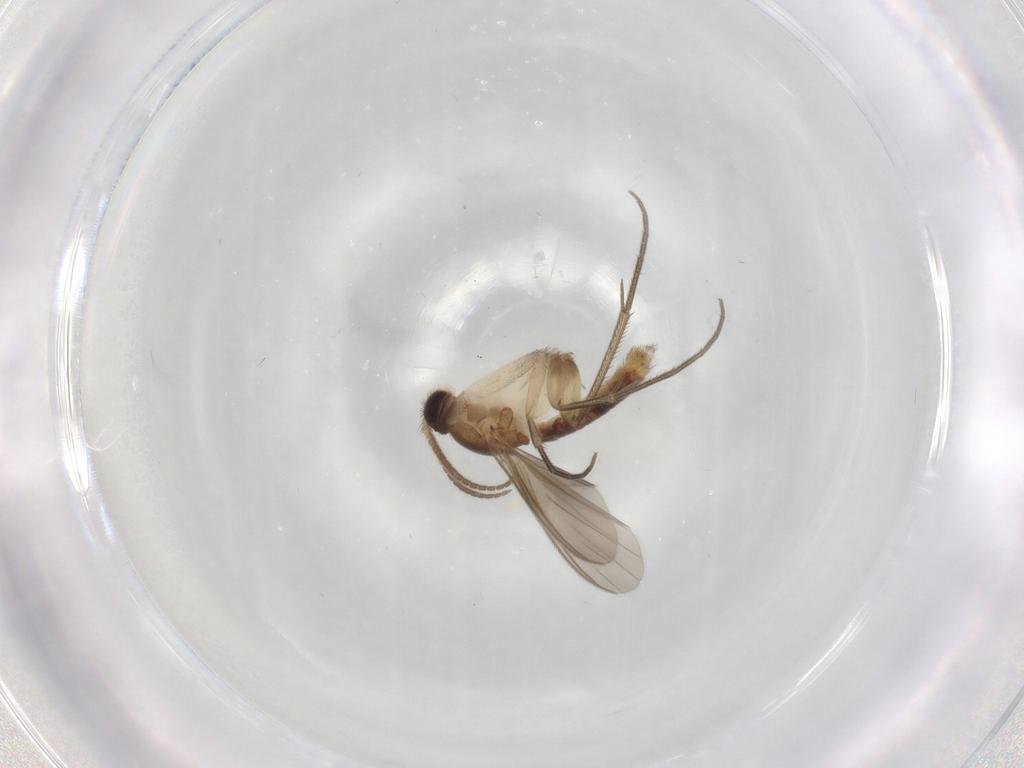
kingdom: Animalia
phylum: Arthropoda
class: Insecta
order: Diptera
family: Mycetophilidae
